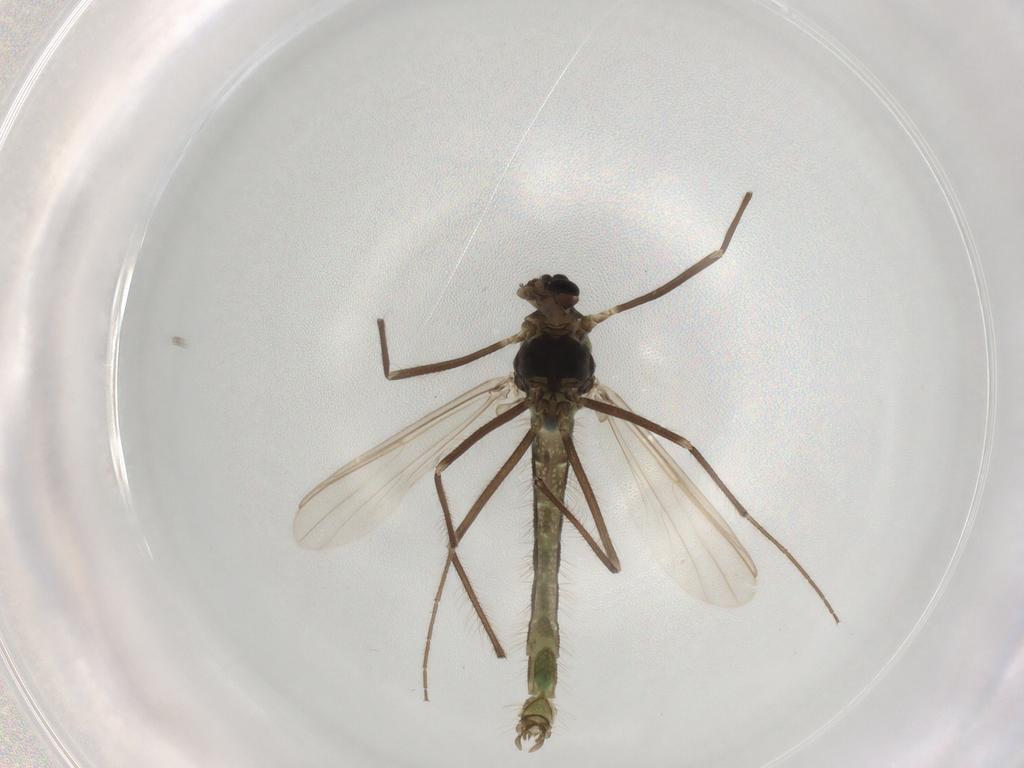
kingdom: Animalia
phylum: Arthropoda
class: Insecta
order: Diptera
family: Chironomidae
